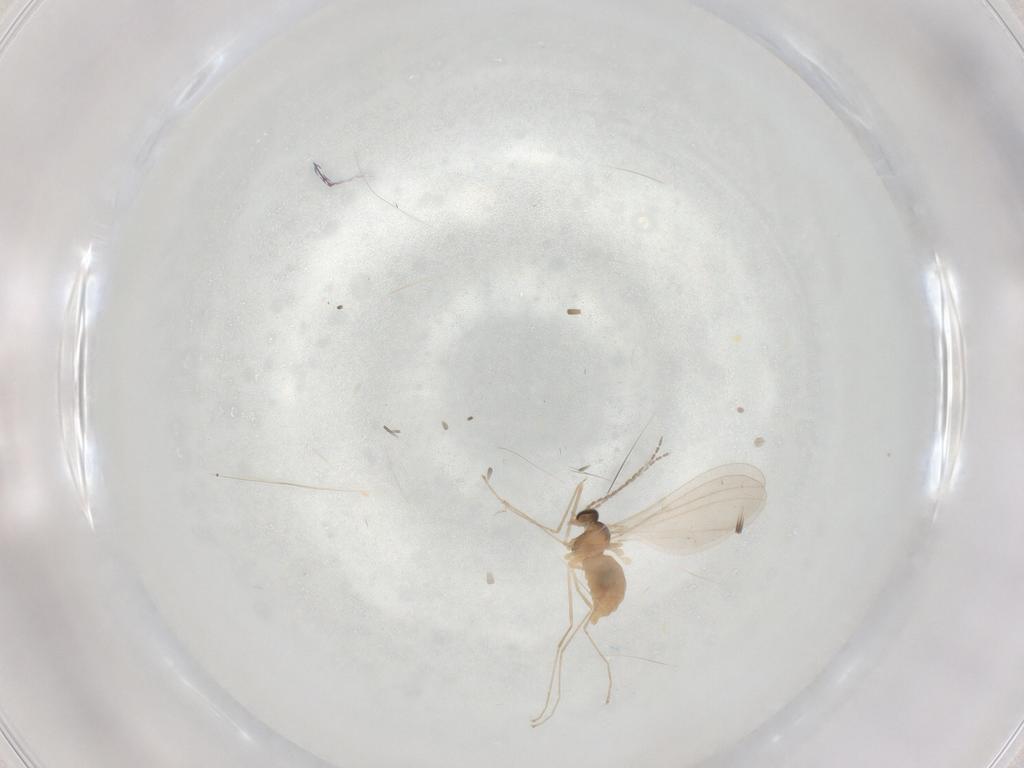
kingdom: Animalia
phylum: Arthropoda
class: Insecta
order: Diptera
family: Cecidomyiidae
